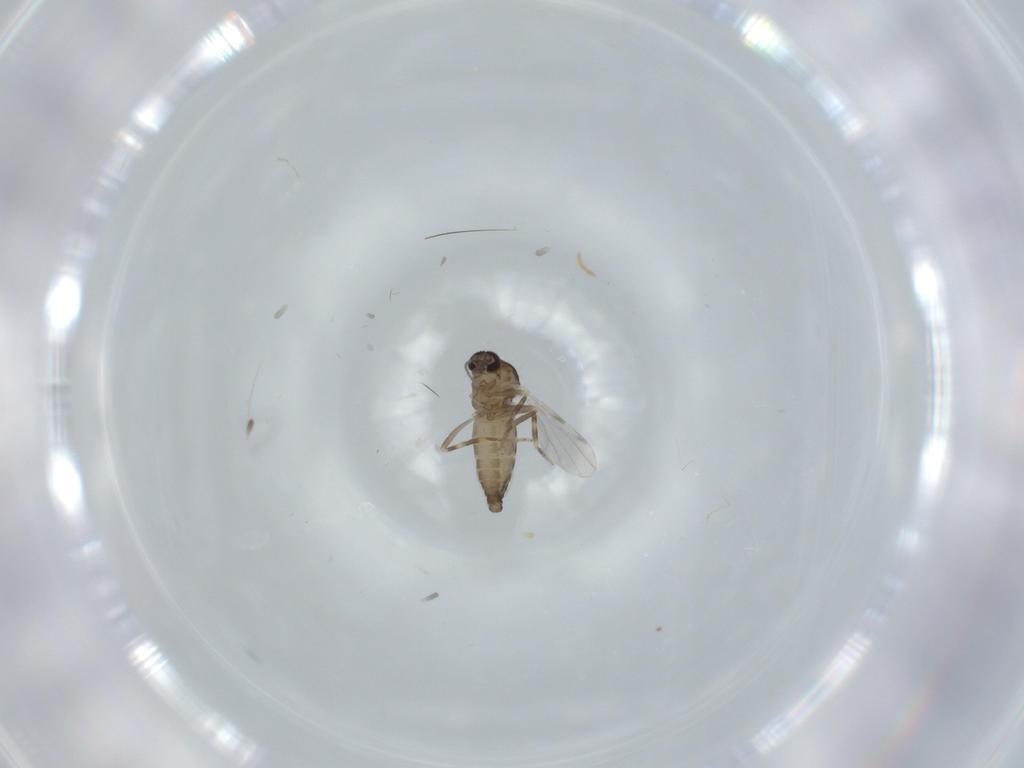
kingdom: Animalia
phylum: Arthropoda
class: Insecta
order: Diptera
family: Ceratopogonidae
